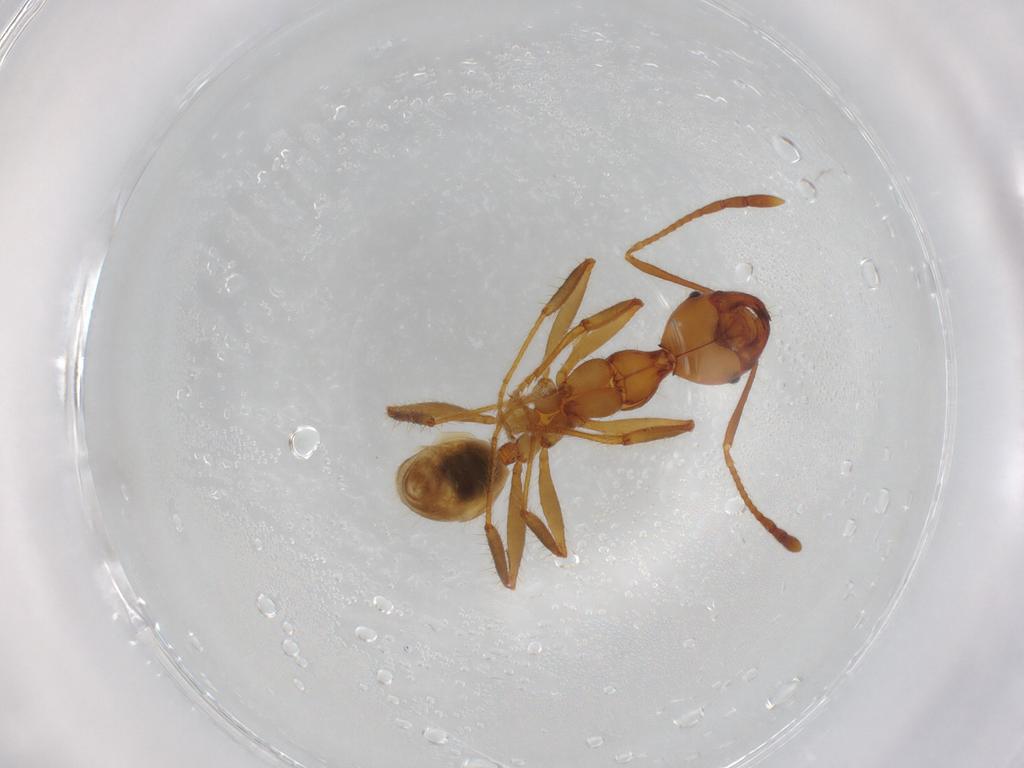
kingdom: Animalia
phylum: Arthropoda
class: Insecta
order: Hymenoptera
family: Formicidae
